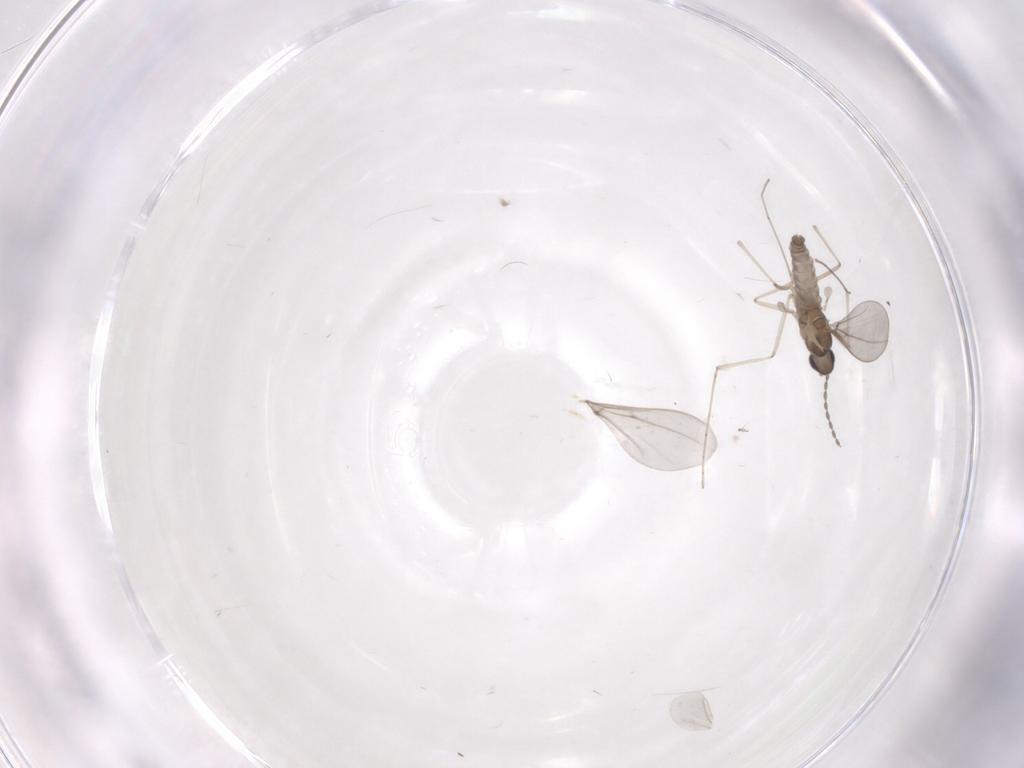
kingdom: Animalia
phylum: Arthropoda
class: Insecta
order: Diptera
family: Cecidomyiidae
